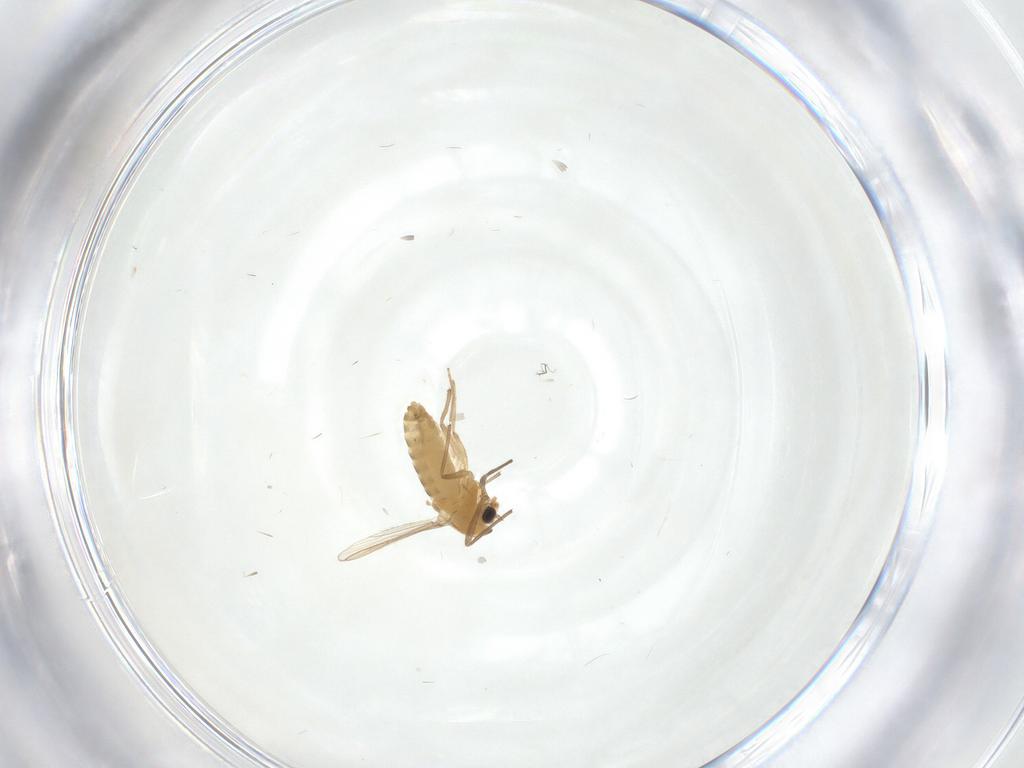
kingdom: Animalia
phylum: Arthropoda
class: Insecta
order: Diptera
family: Chironomidae
